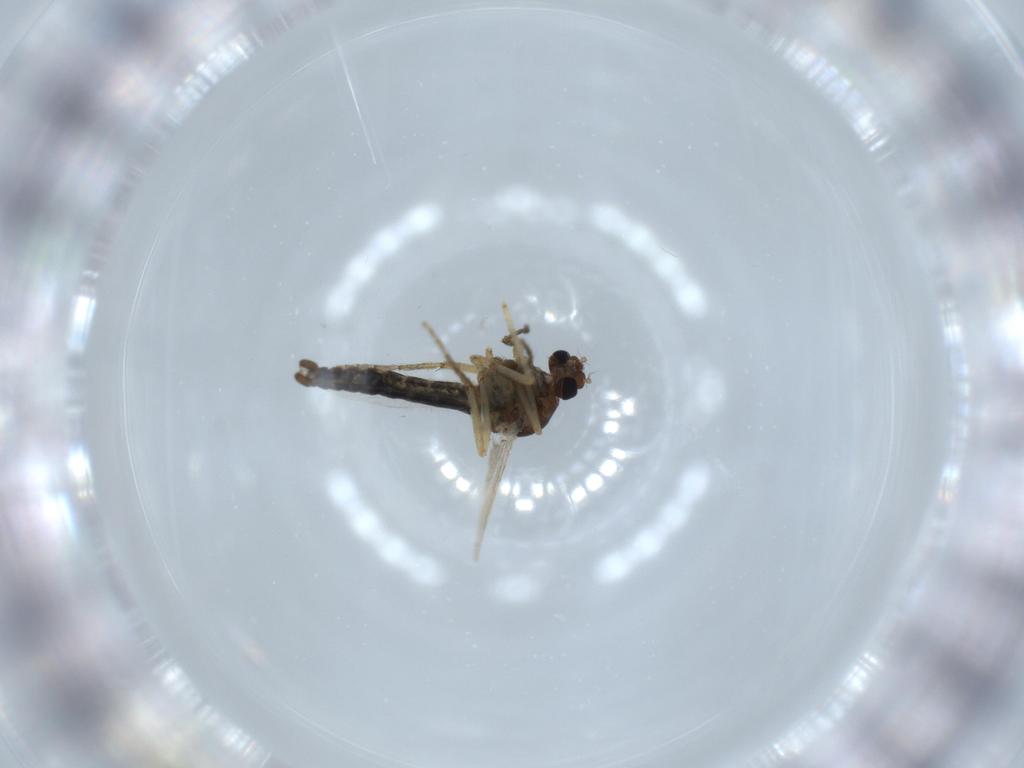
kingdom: Animalia
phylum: Arthropoda
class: Insecta
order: Diptera
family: Ceratopogonidae
